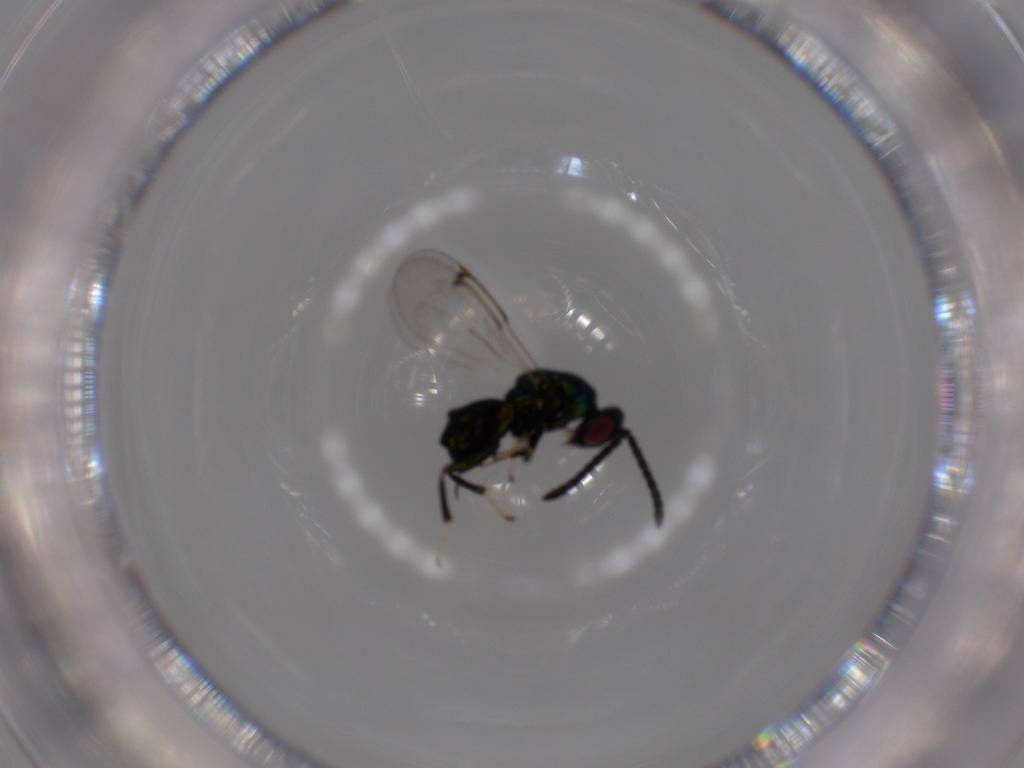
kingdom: Animalia
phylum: Arthropoda
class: Insecta
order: Hymenoptera
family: Torymidae
